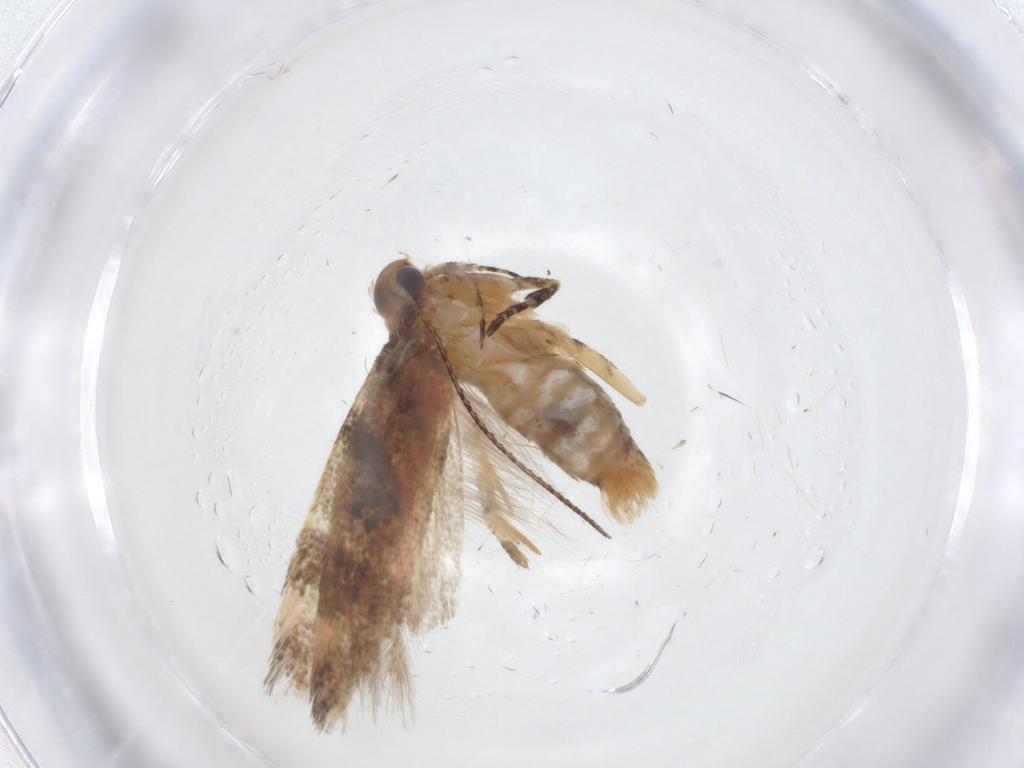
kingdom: Animalia
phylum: Arthropoda
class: Insecta
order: Lepidoptera
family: Gelechiidae
